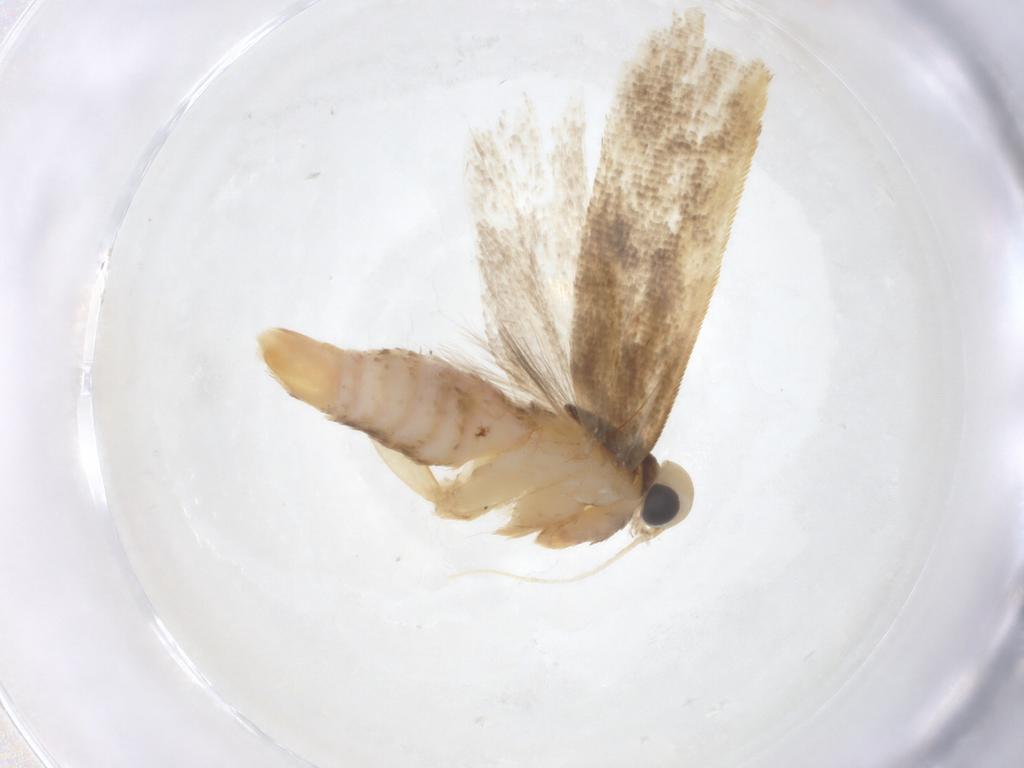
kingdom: Animalia
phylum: Arthropoda
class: Insecta
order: Lepidoptera
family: Gelechiidae
